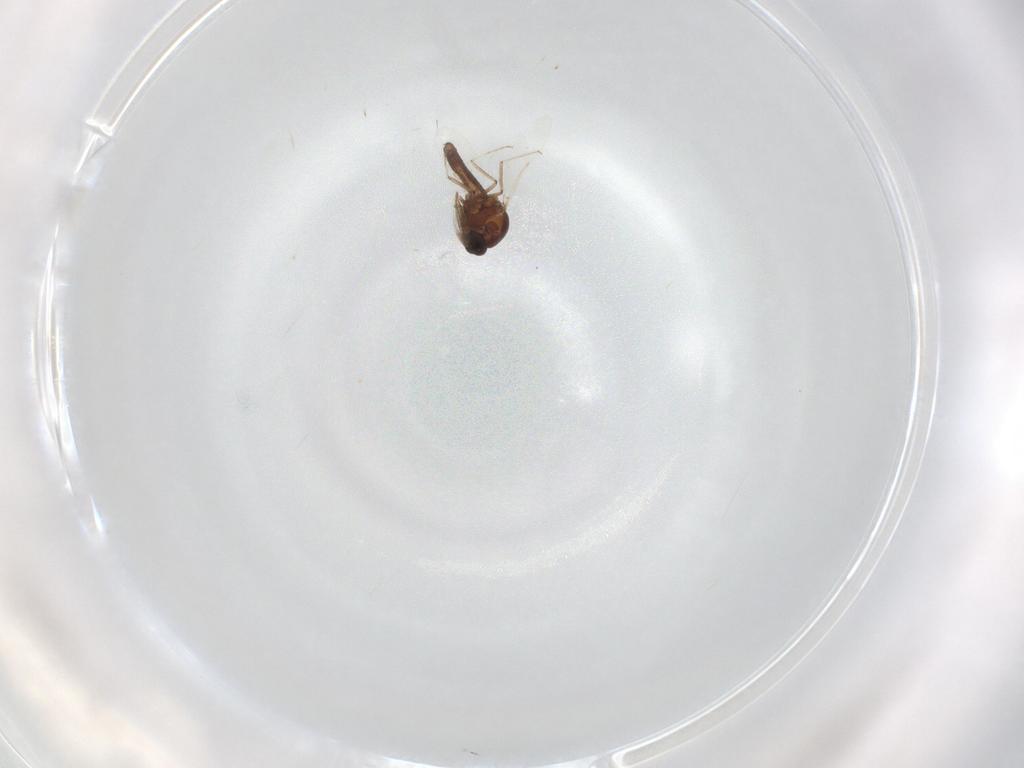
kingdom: Animalia
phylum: Arthropoda
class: Insecta
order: Diptera
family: Ceratopogonidae
